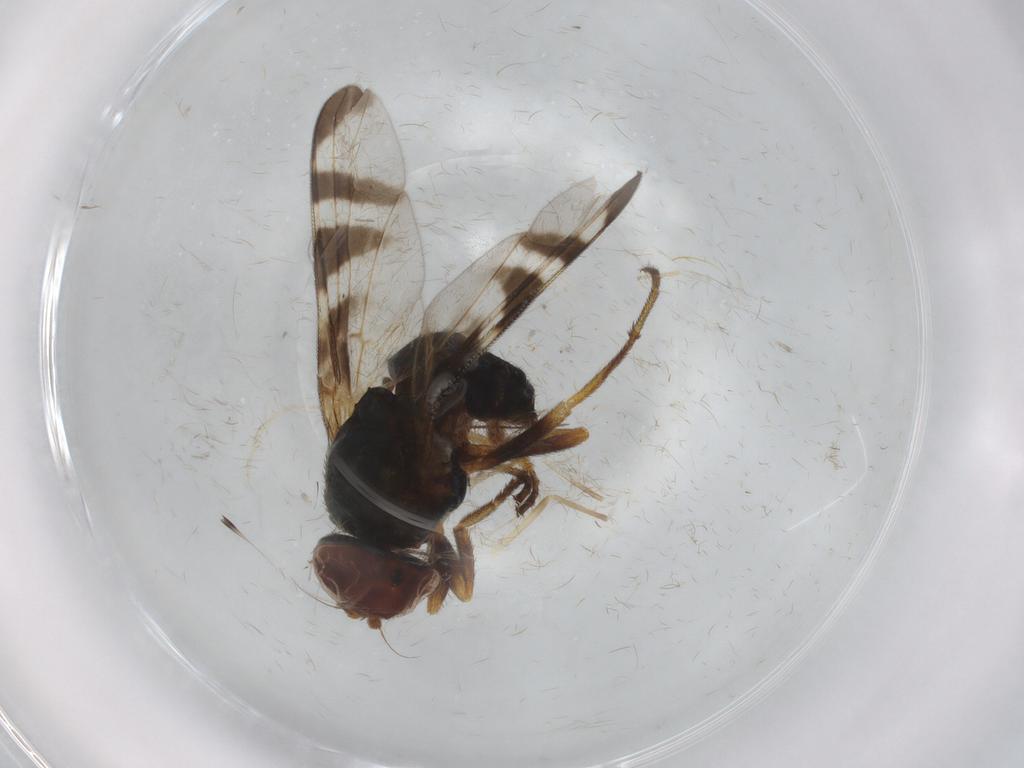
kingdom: Animalia
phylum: Arthropoda
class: Insecta
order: Diptera
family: Platystomatidae
